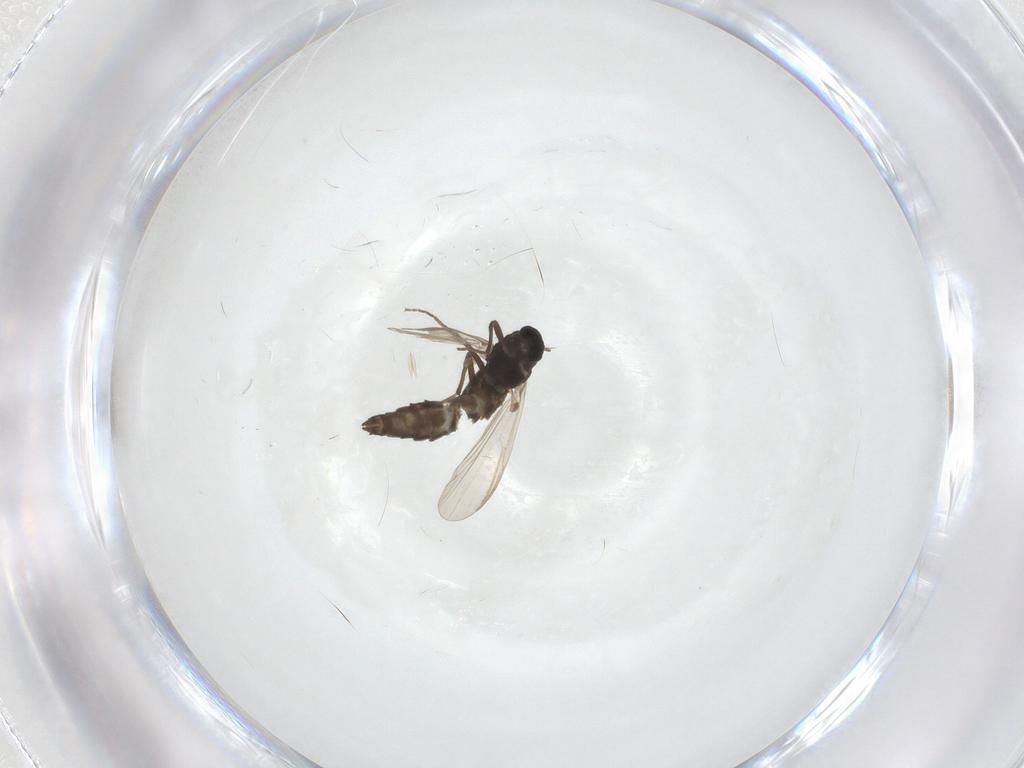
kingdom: Animalia
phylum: Arthropoda
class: Insecta
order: Diptera
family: Chironomidae
